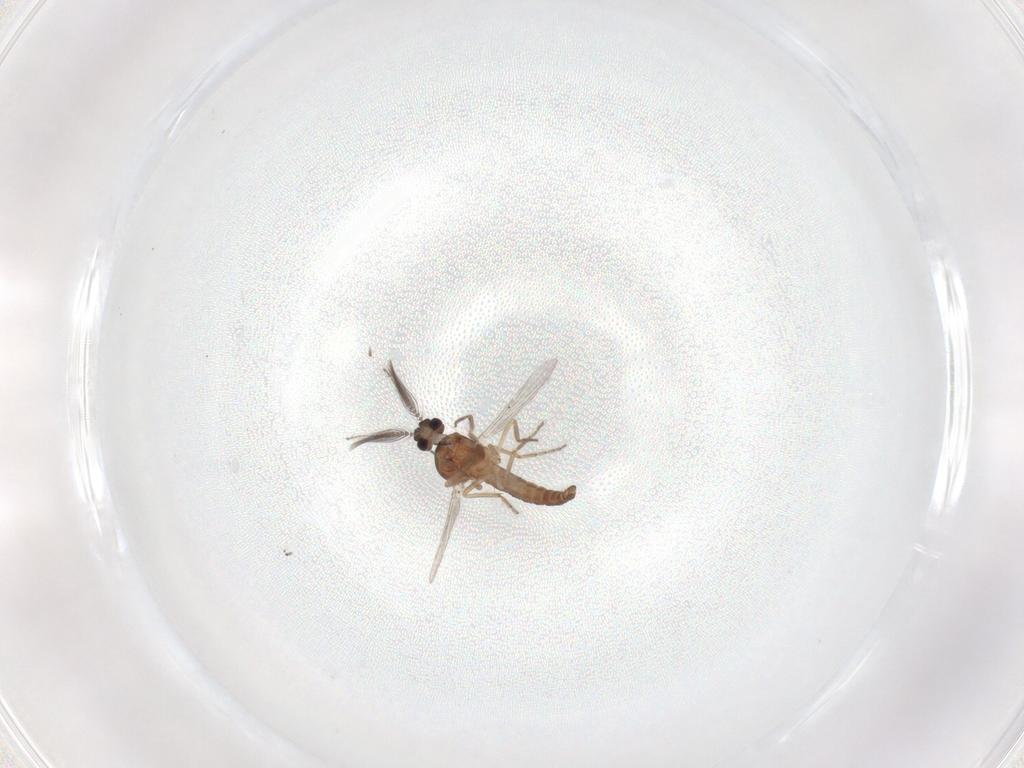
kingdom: Animalia
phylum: Arthropoda
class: Insecta
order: Diptera
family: Ceratopogonidae
